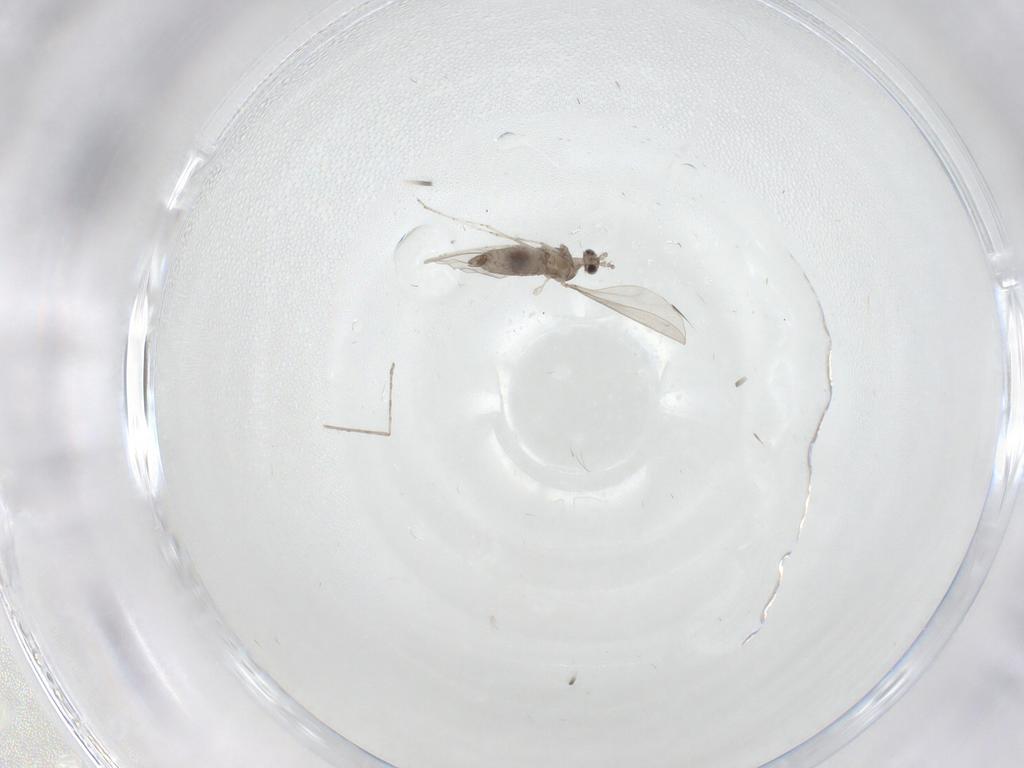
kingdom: Animalia
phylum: Arthropoda
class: Insecta
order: Diptera
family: Cecidomyiidae
